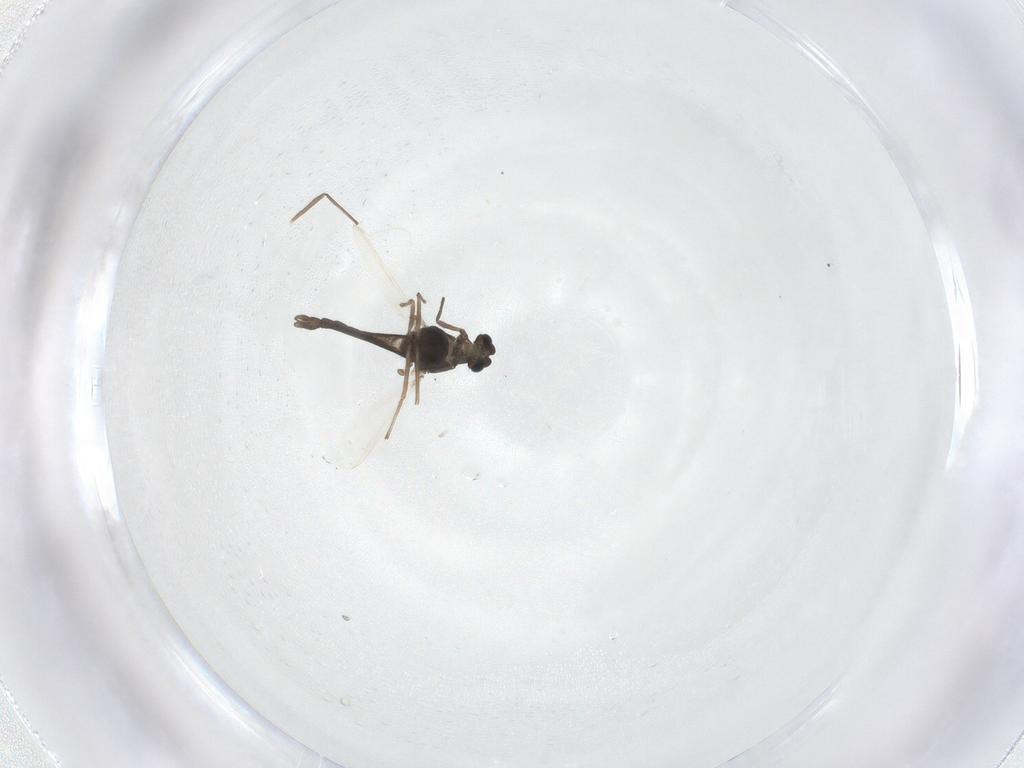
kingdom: Animalia
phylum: Arthropoda
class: Insecta
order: Diptera
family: Chironomidae
